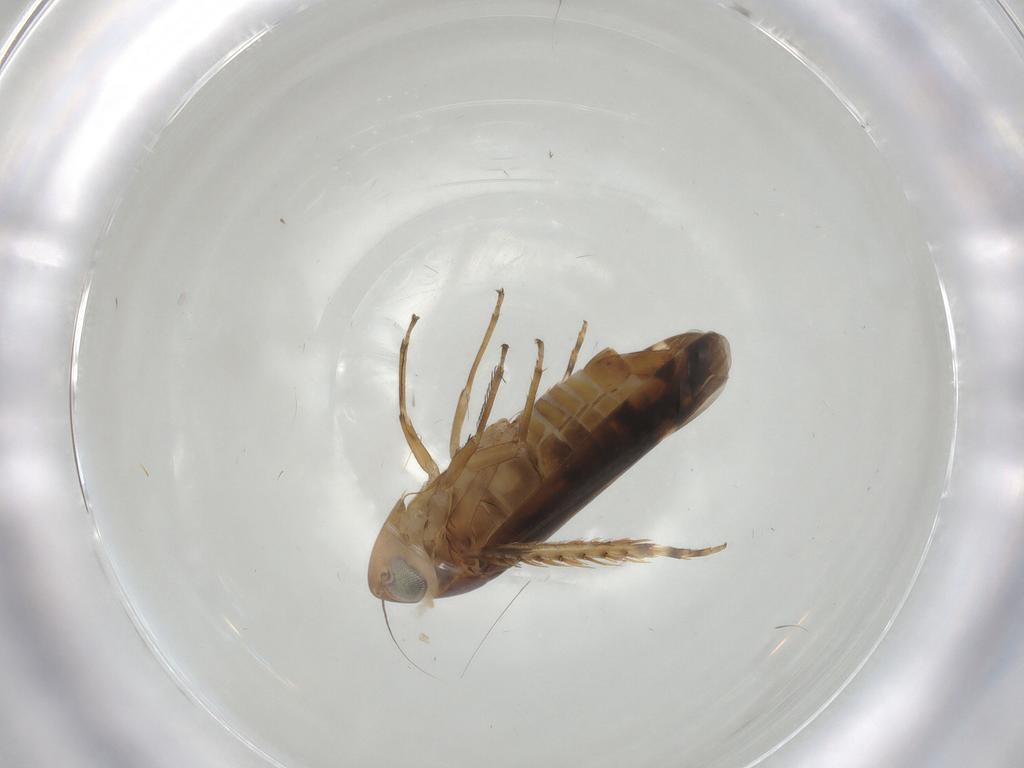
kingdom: Animalia
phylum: Arthropoda
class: Insecta
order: Hemiptera
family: Cicadellidae
